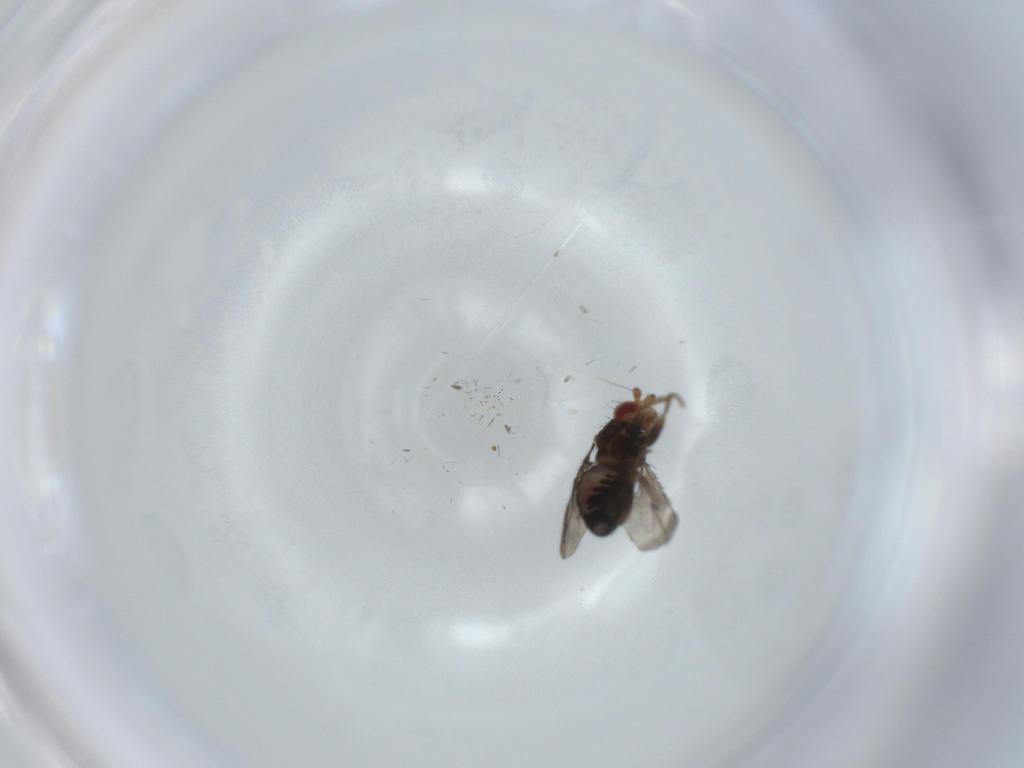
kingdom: Animalia
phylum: Arthropoda
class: Insecta
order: Diptera
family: Sphaeroceridae
